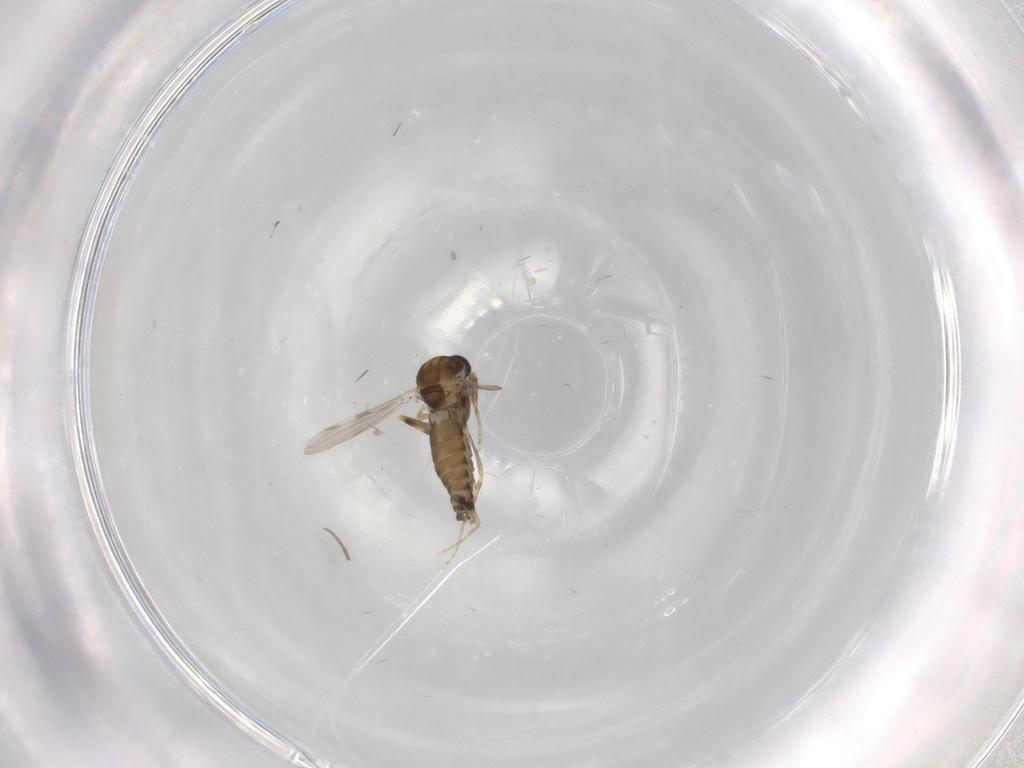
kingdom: Animalia
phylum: Arthropoda
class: Insecta
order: Diptera
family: Ceratopogonidae
